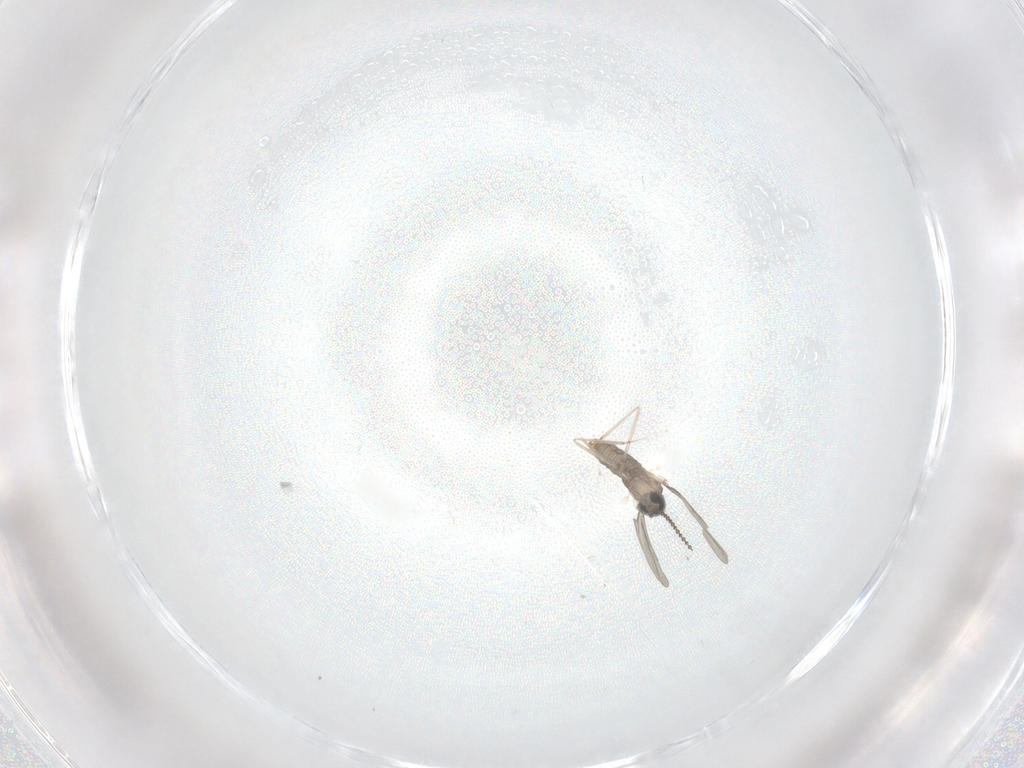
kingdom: Animalia
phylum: Arthropoda
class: Insecta
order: Diptera
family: Cecidomyiidae
